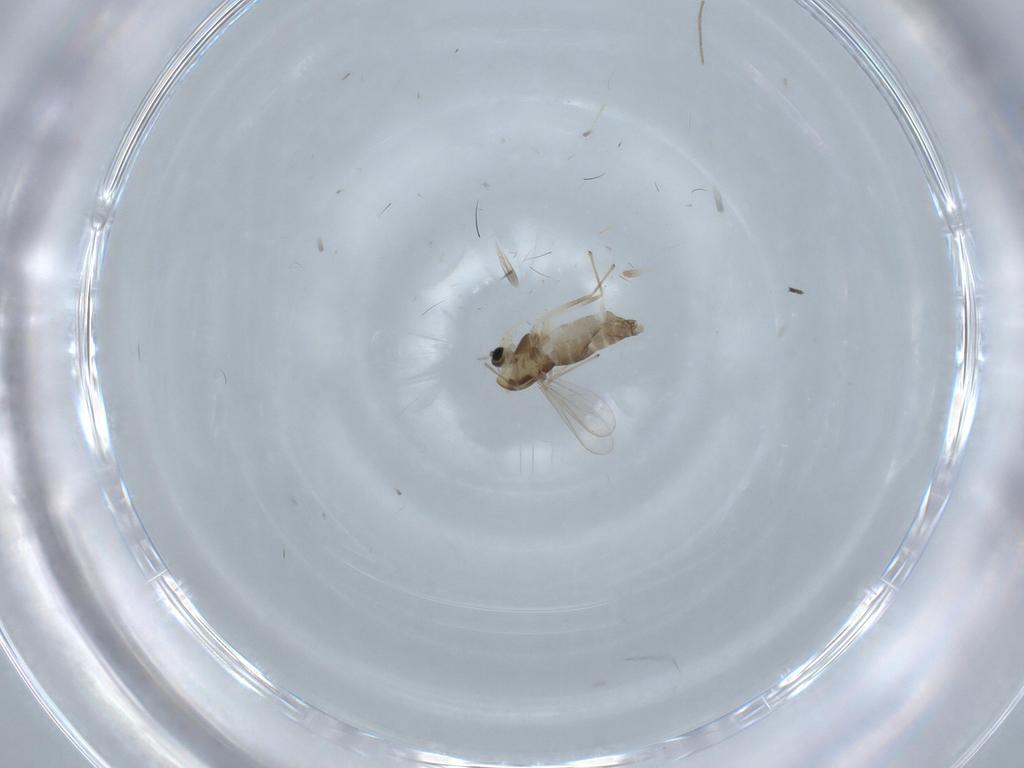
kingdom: Animalia
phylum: Arthropoda
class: Insecta
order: Diptera
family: Chironomidae
